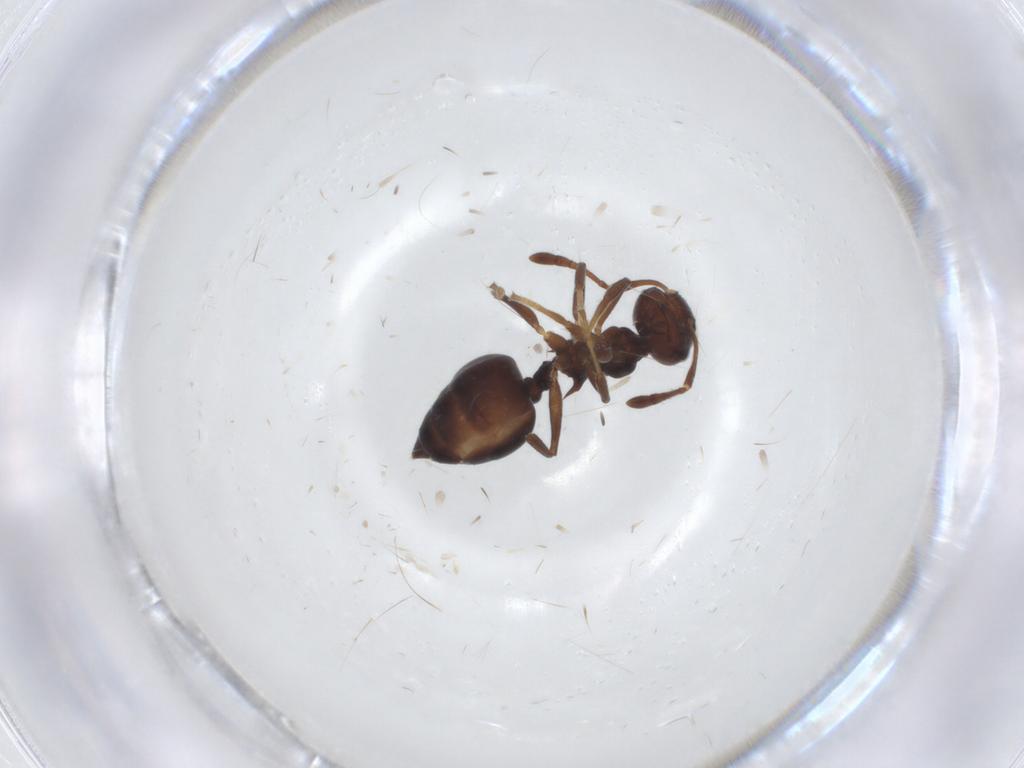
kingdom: Animalia
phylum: Arthropoda
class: Insecta
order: Hymenoptera
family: Formicidae
